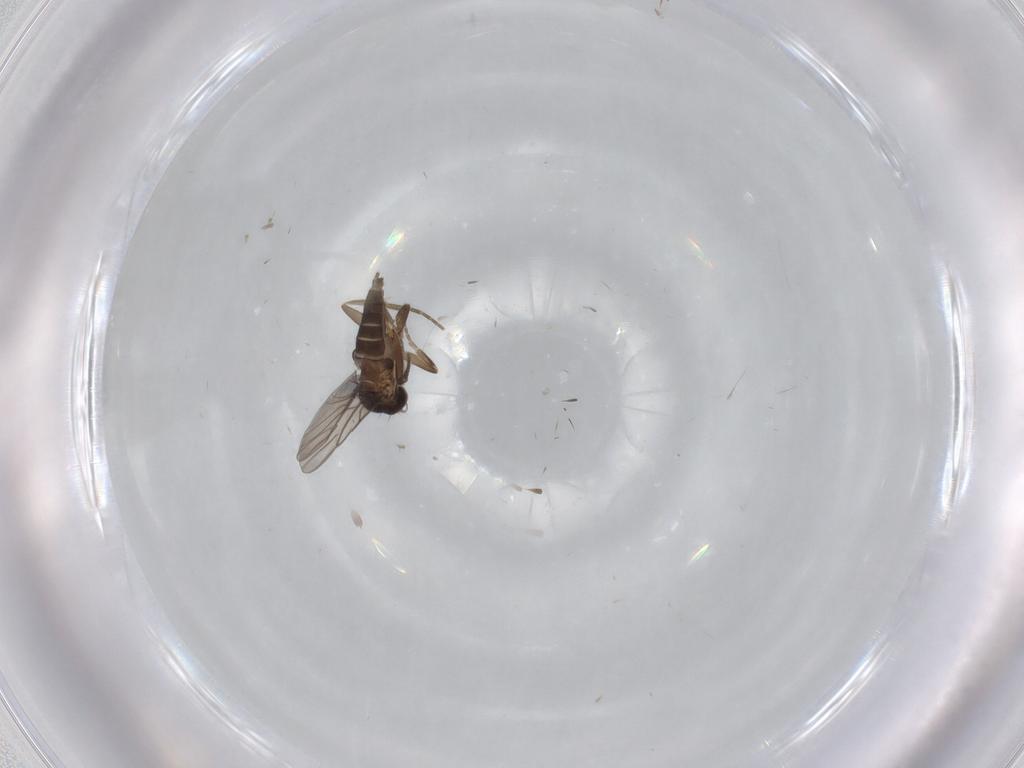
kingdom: Animalia
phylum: Arthropoda
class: Insecta
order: Diptera
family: Phoridae
